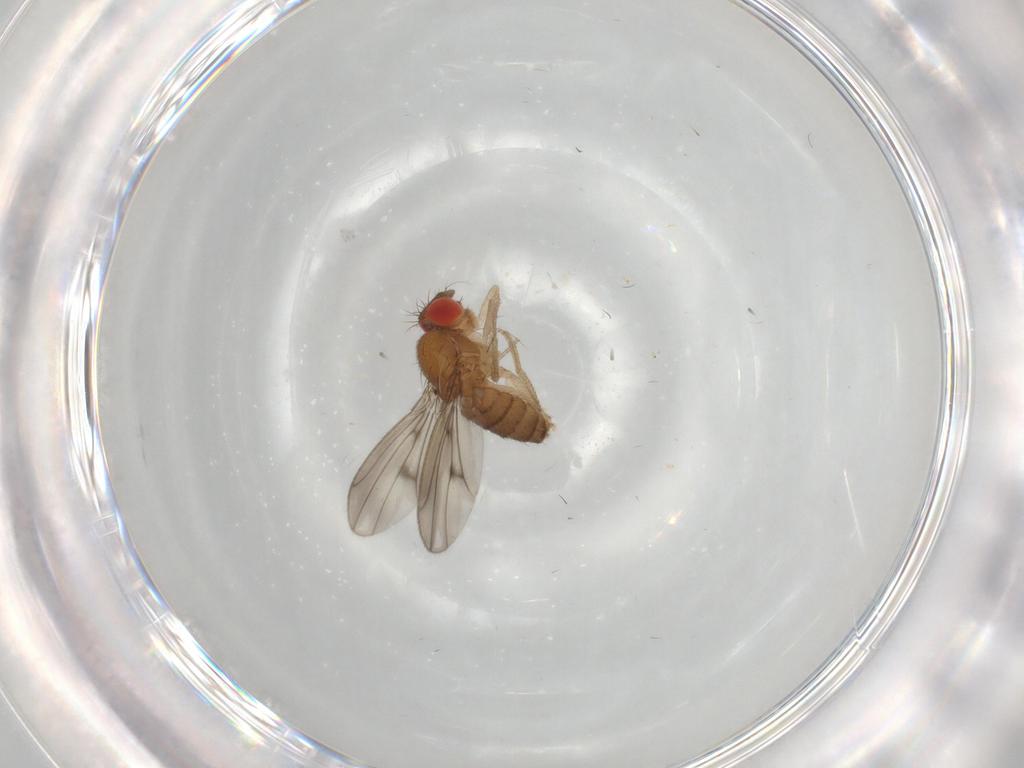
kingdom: Animalia
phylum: Arthropoda
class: Insecta
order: Diptera
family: Drosophilidae
